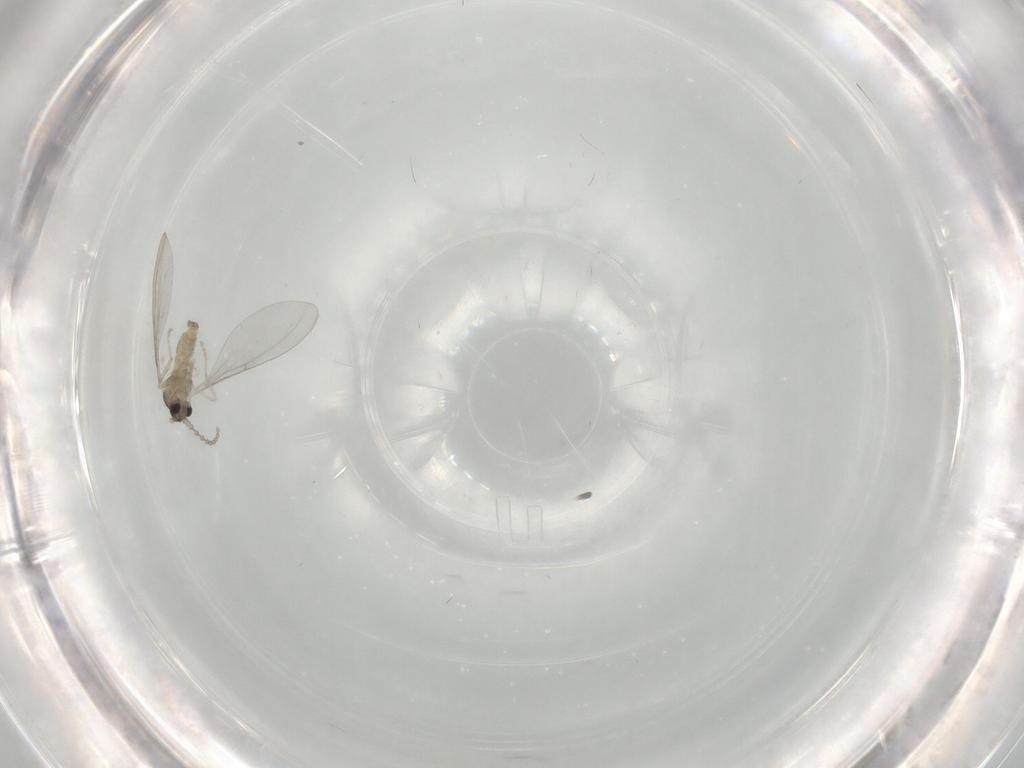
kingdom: Animalia
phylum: Arthropoda
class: Insecta
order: Diptera
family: Cecidomyiidae
